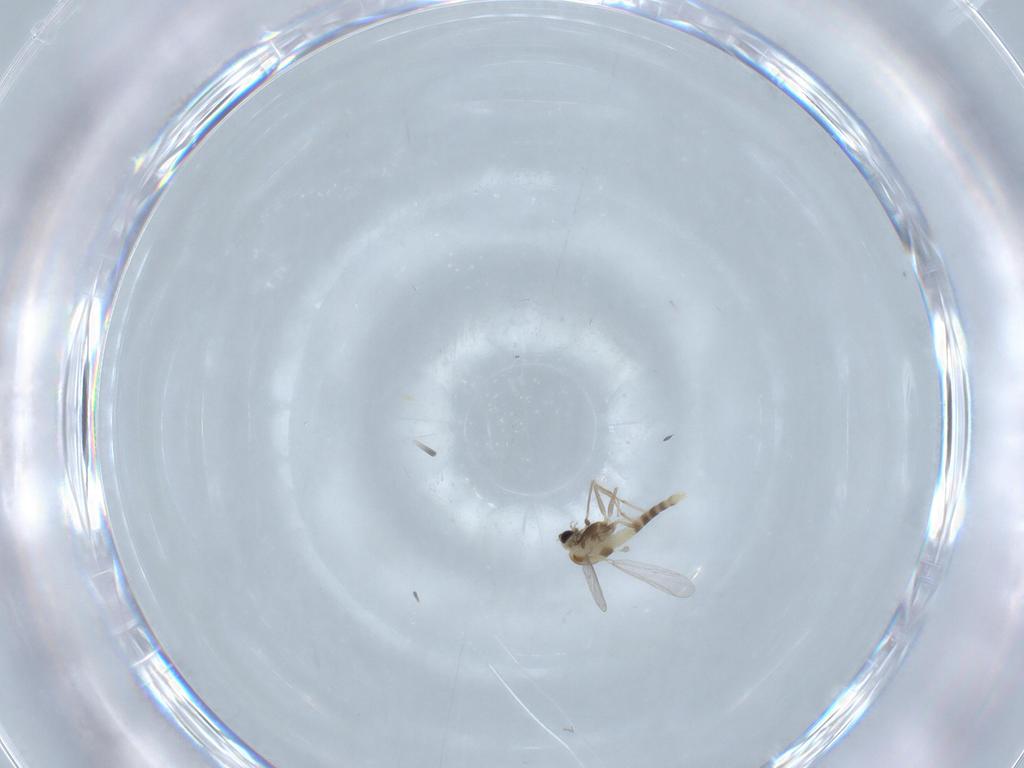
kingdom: Animalia
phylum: Arthropoda
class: Insecta
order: Diptera
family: Chironomidae
